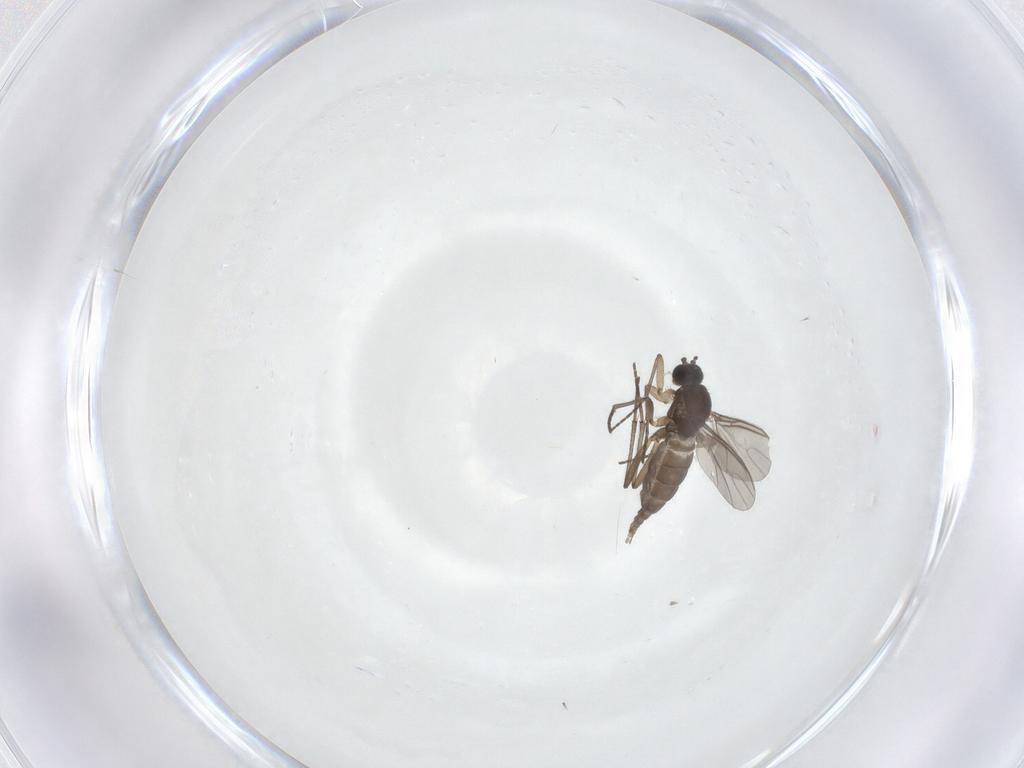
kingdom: Animalia
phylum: Arthropoda
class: Insecta
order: Diptera
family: Sciaridae
